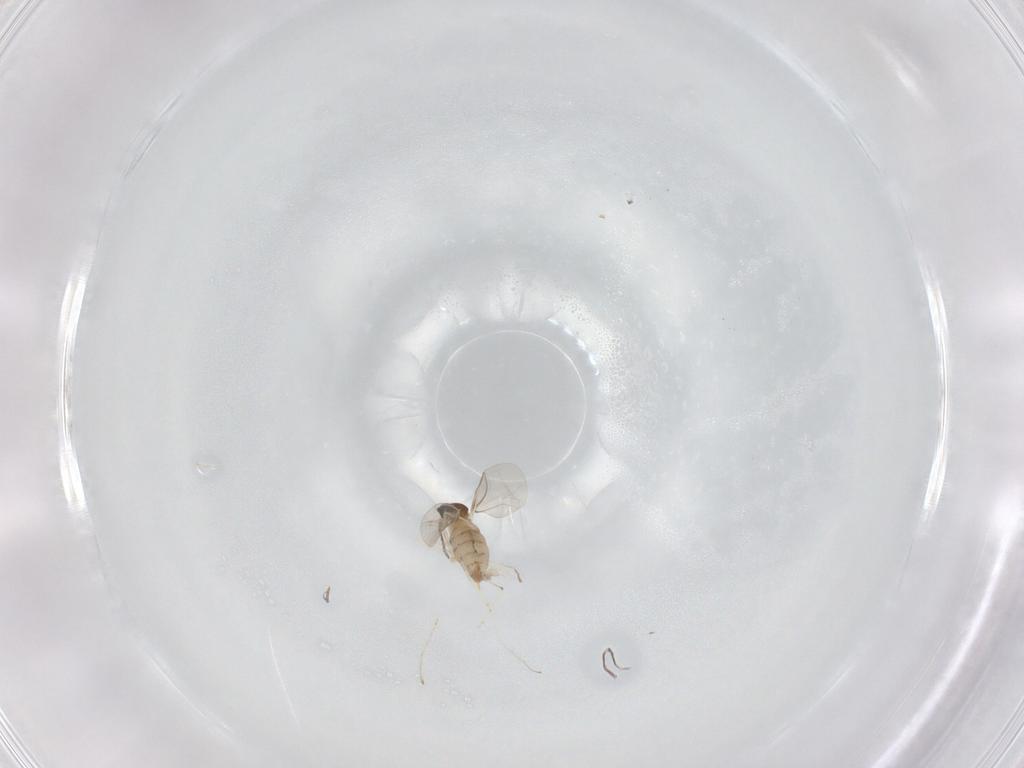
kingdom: Animalia
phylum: Arthropoda
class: Insecta
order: Diptera
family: Cecidomyiidae
